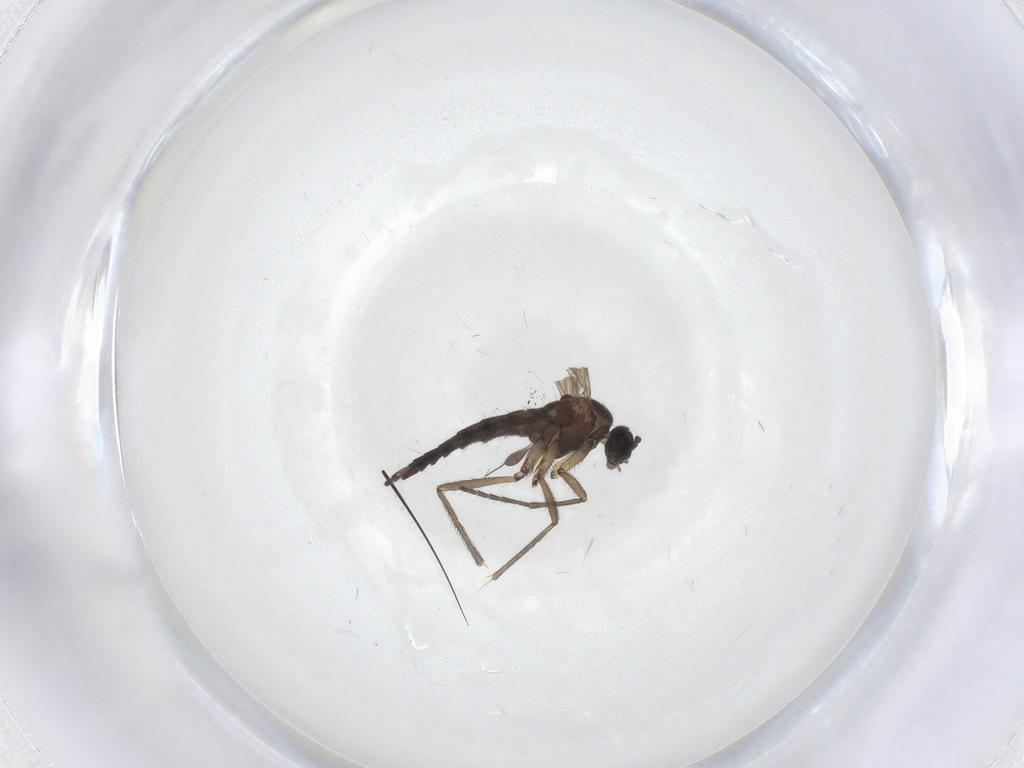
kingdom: Animalia
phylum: Arthropoda
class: Insecta
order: Diptera
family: Sciaridae
